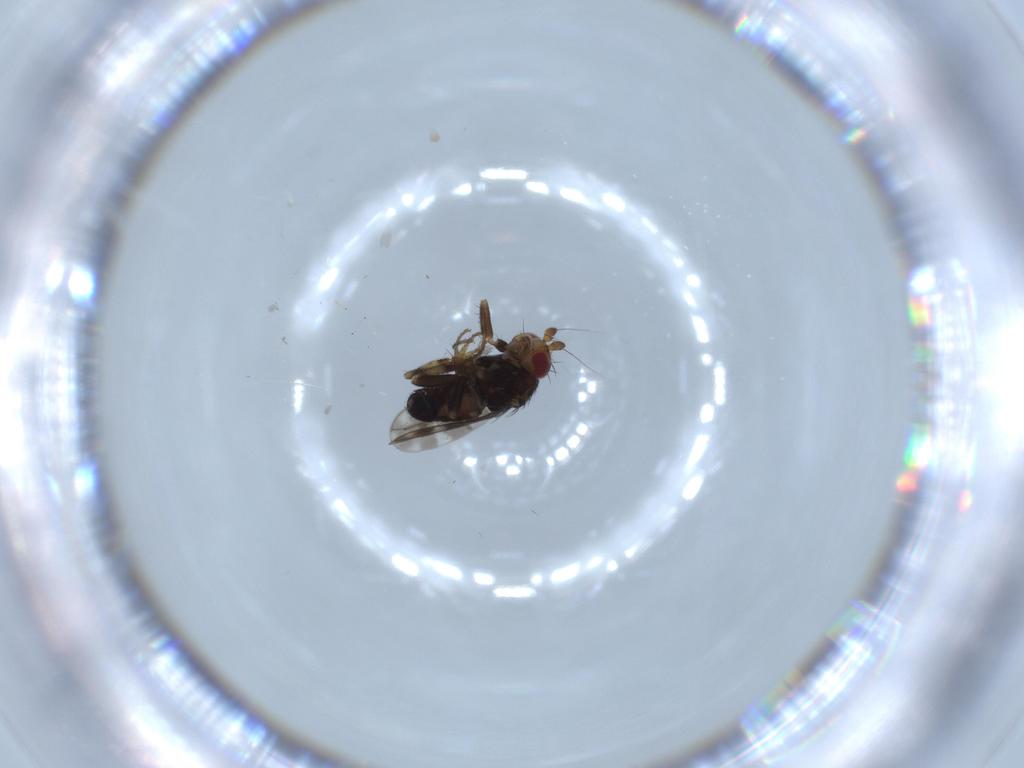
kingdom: Animalia
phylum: Arthropoda
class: Insecta
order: Diptera
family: Sphaeroceridae
